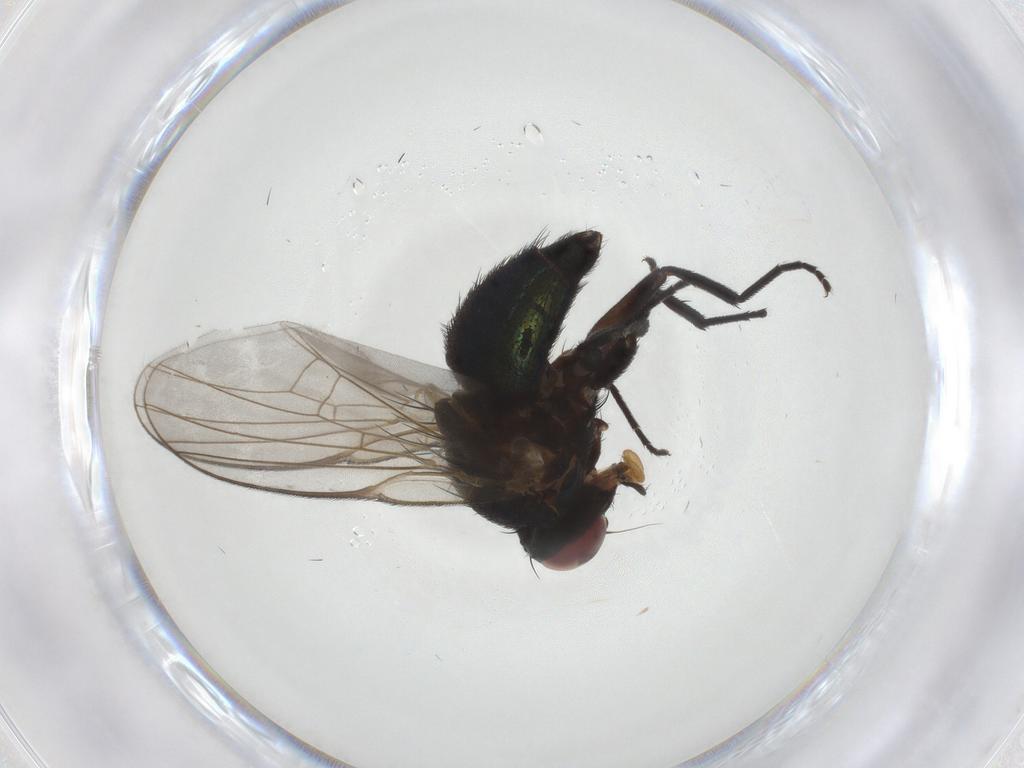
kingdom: Animalia
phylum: Arthropoda
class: Insecta
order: Diptera
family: Agromyzidae
